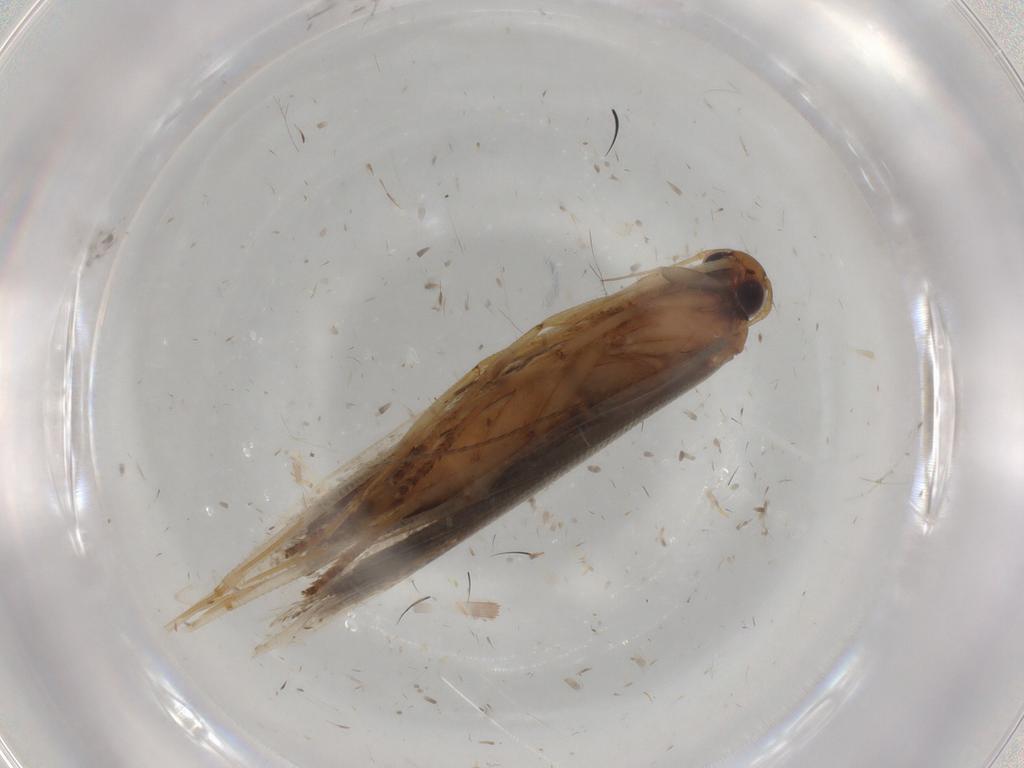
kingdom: Animalia
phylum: Arthropoda
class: Insecta
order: Lepidoptera
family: Gelechiidae
